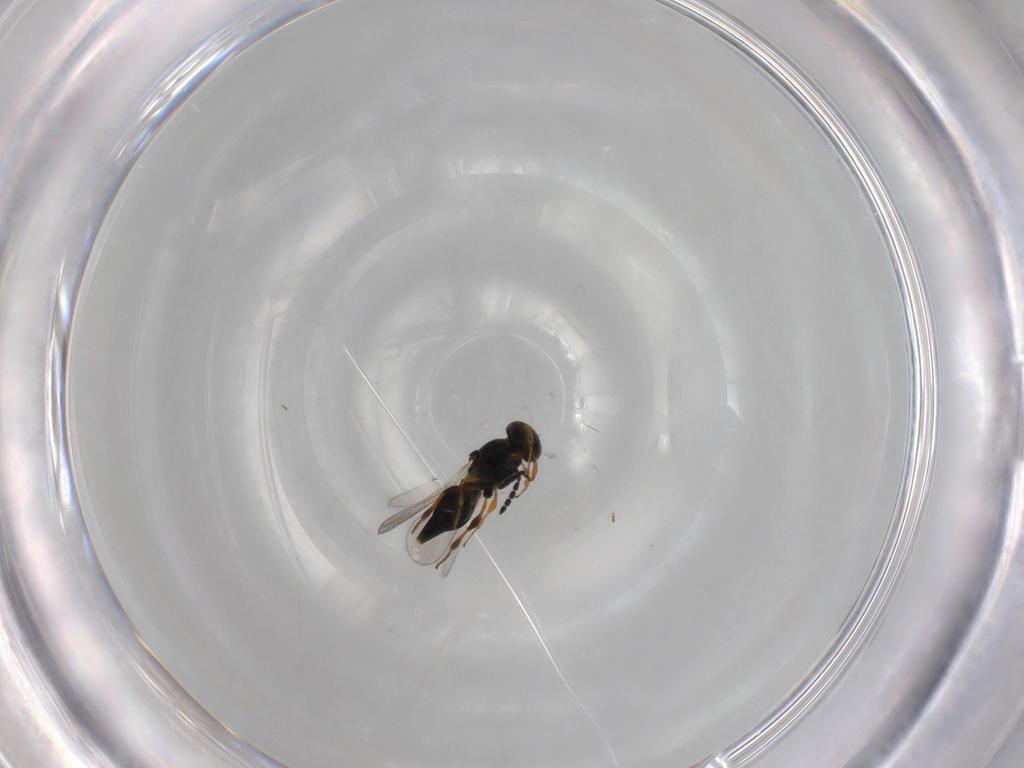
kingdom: Animalia
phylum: Arthropoda
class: Insecta
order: Hymenoptera
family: Platygastridae
